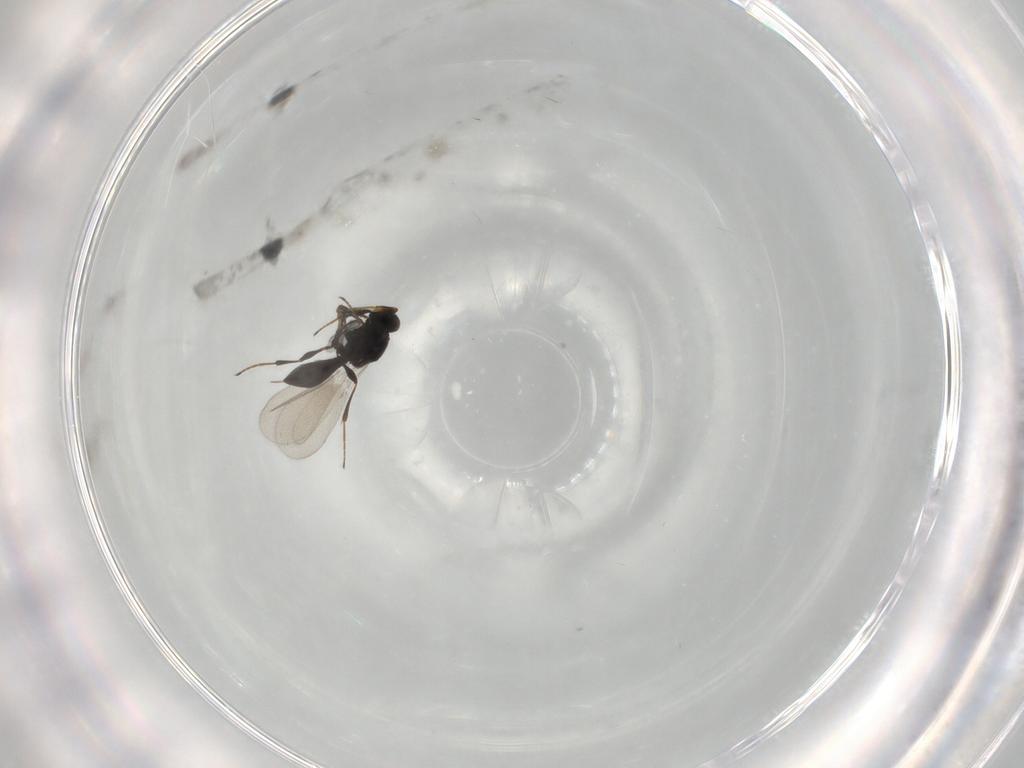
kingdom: Animalia
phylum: Arthropoda
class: Insecta
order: Hymenoptera
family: Platygastridae
